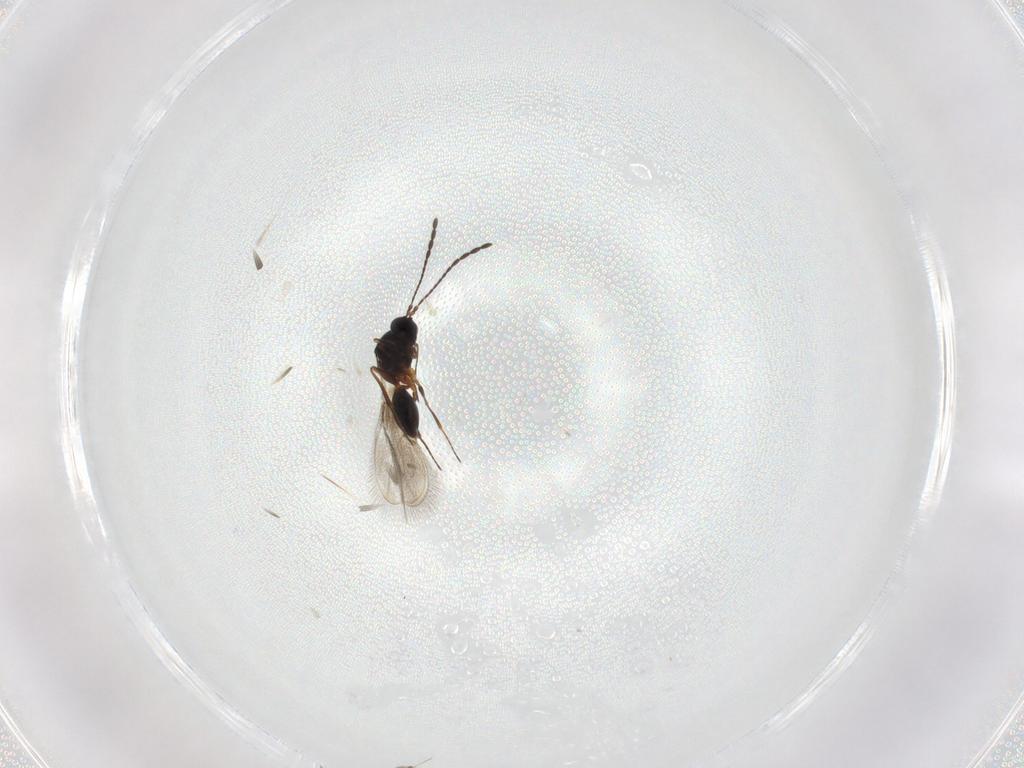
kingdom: Animalia
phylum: Arthropoda
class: Insecta
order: Hymenoptera
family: Figitidae
